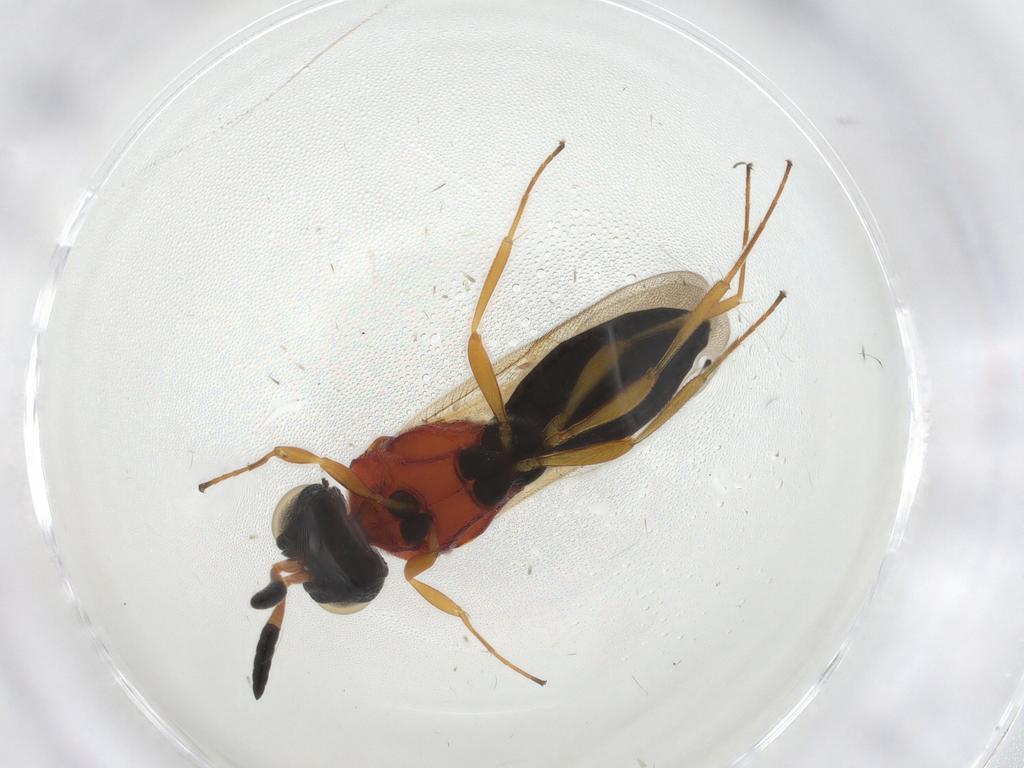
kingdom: Animalia
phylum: Arthropoda
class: Insecta
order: Hymenoptera
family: Scelionidae
